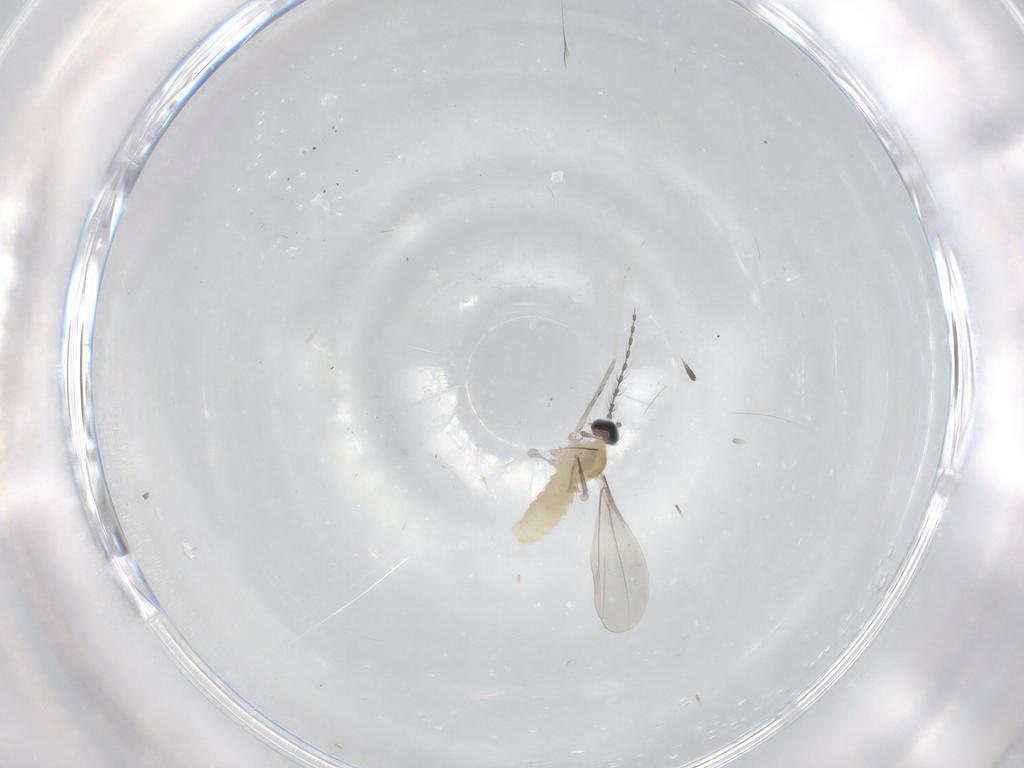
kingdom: Animalia
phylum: Arthropoda
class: Insecta
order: Diptera
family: Cecidomyiidae
